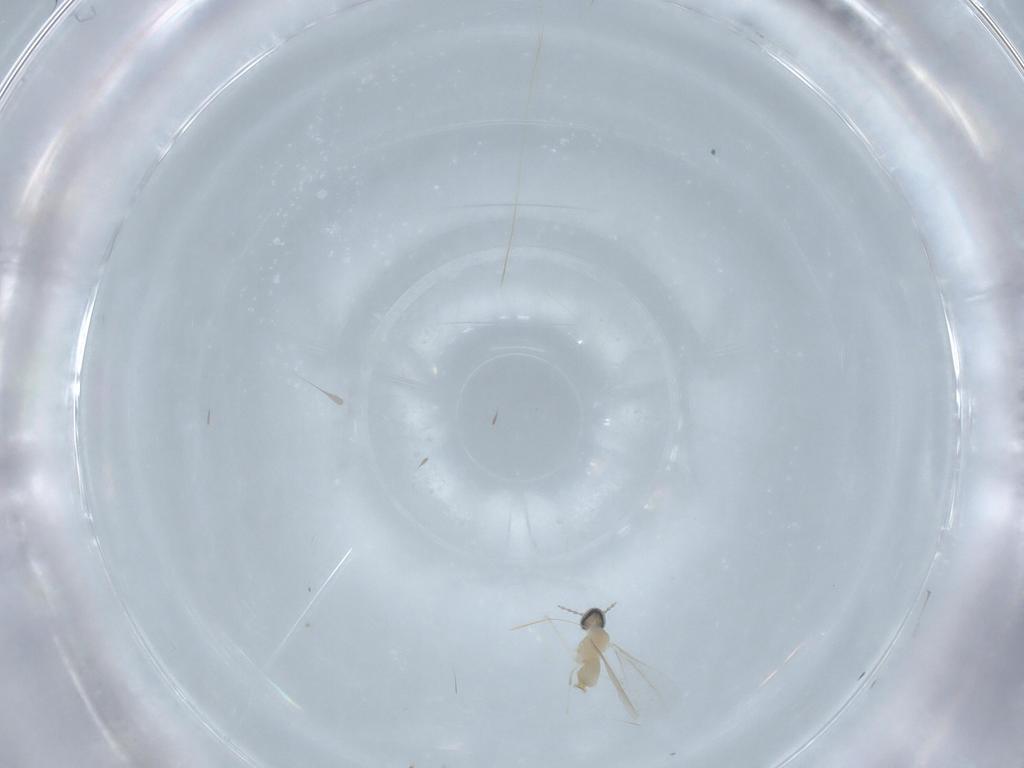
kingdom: Animalia
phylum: Arthropoda
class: Insecta
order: Diptera
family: Cecidomyiidae
